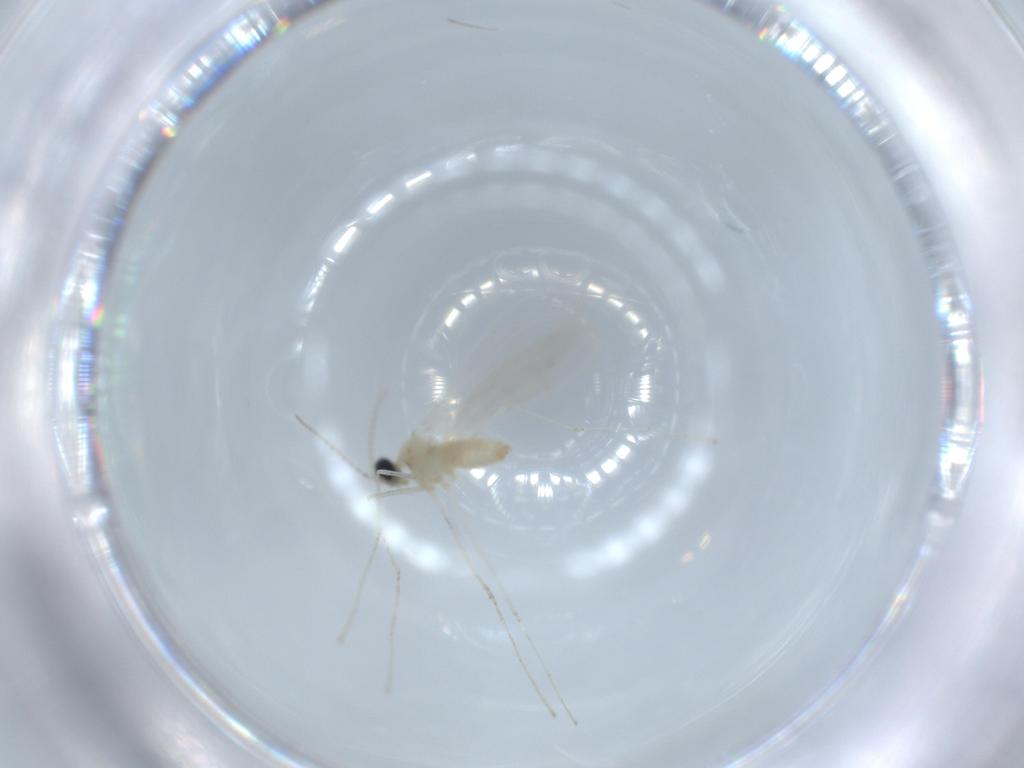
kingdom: Animalia
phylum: Arthropoda
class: Insecta
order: Diptera
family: Cecidomyiidae
